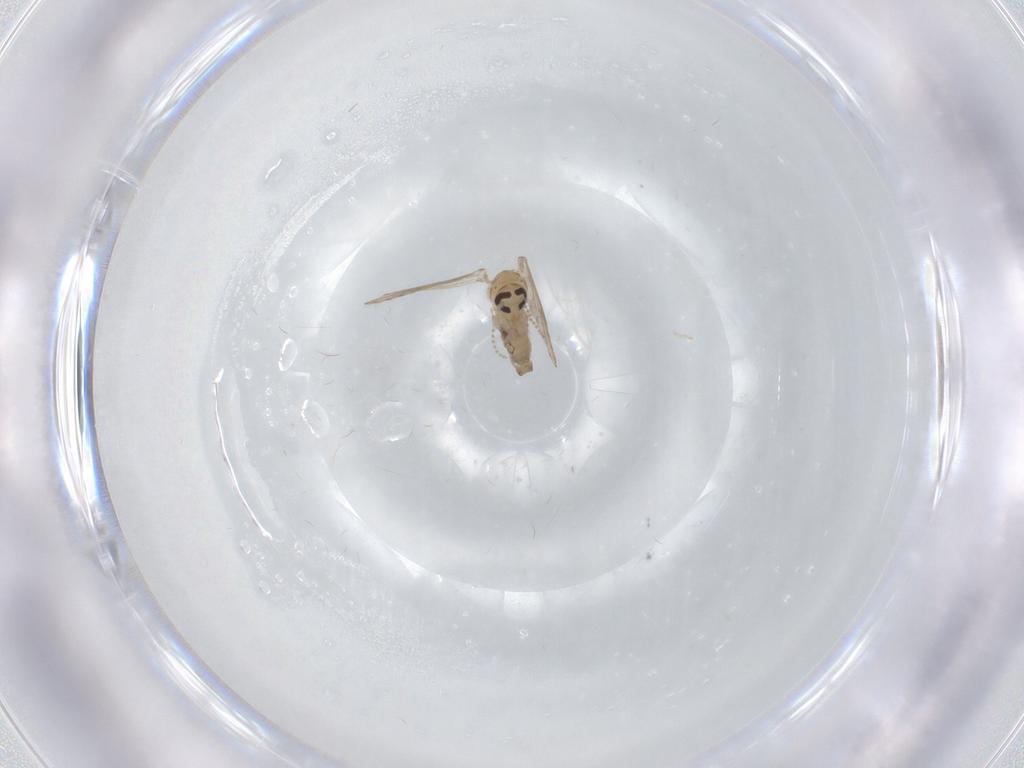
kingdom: Animalia
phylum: Arthropoda
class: Insecta
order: Diptera
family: Psychodidae
